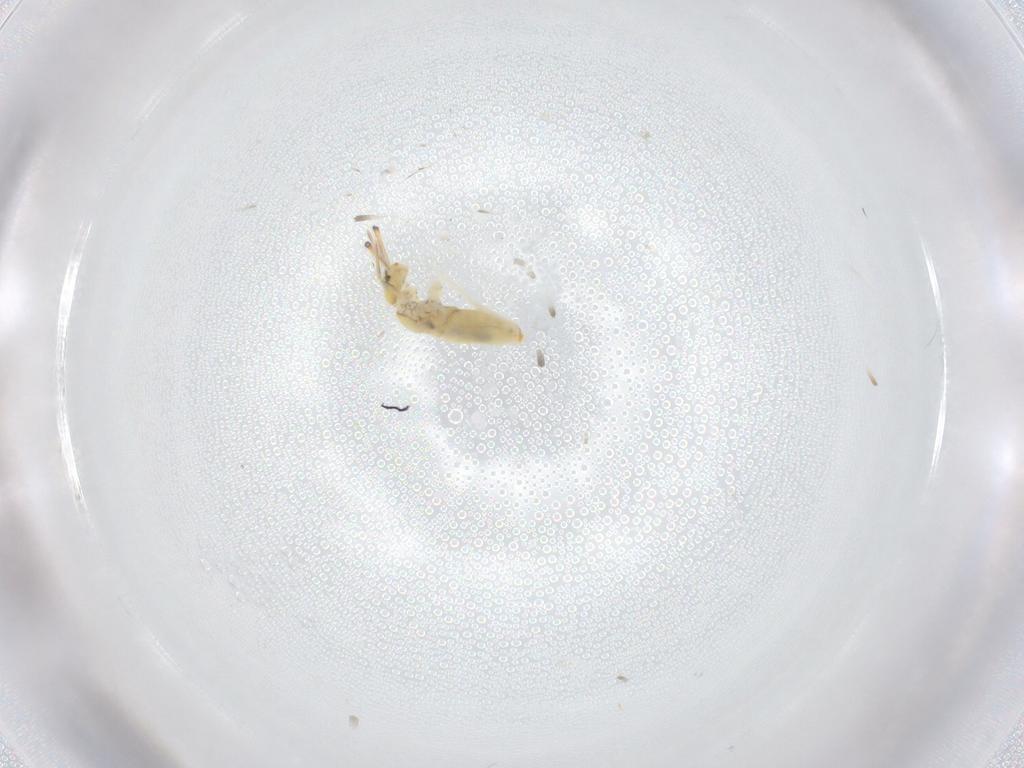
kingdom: Animalia
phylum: Arthropoda
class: Collembola
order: Entomobryomorpha
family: Entomobryidae
